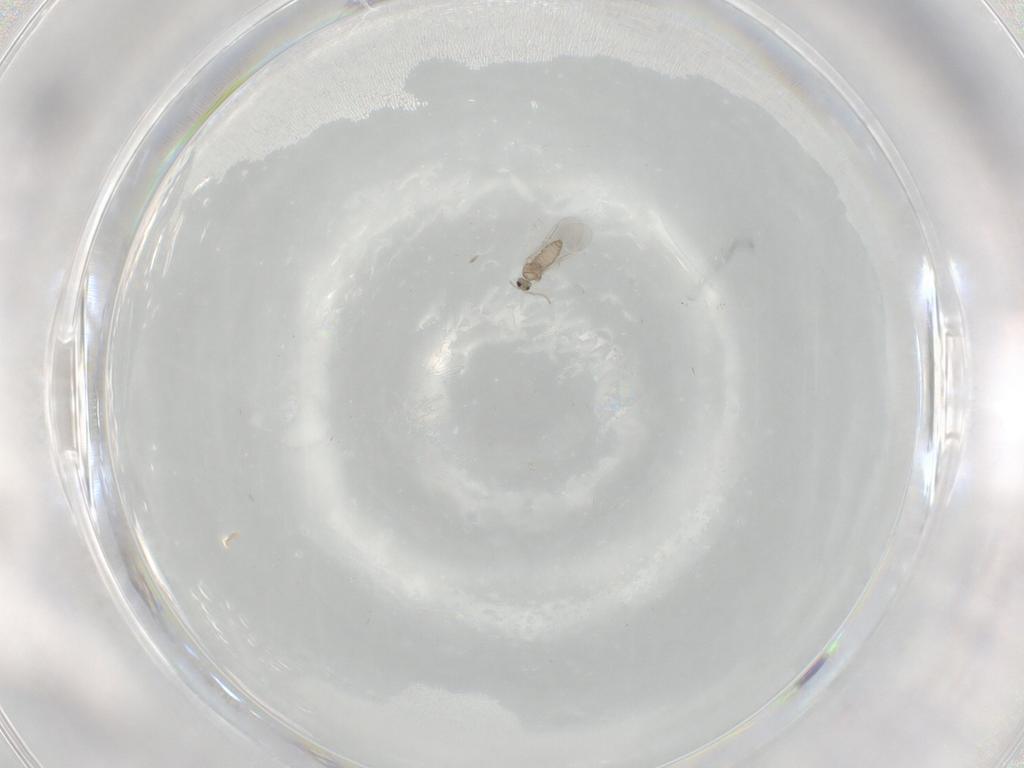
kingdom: Animalia
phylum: Arthropoda
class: Insecta
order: Diptera
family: Cecidomyiidae
